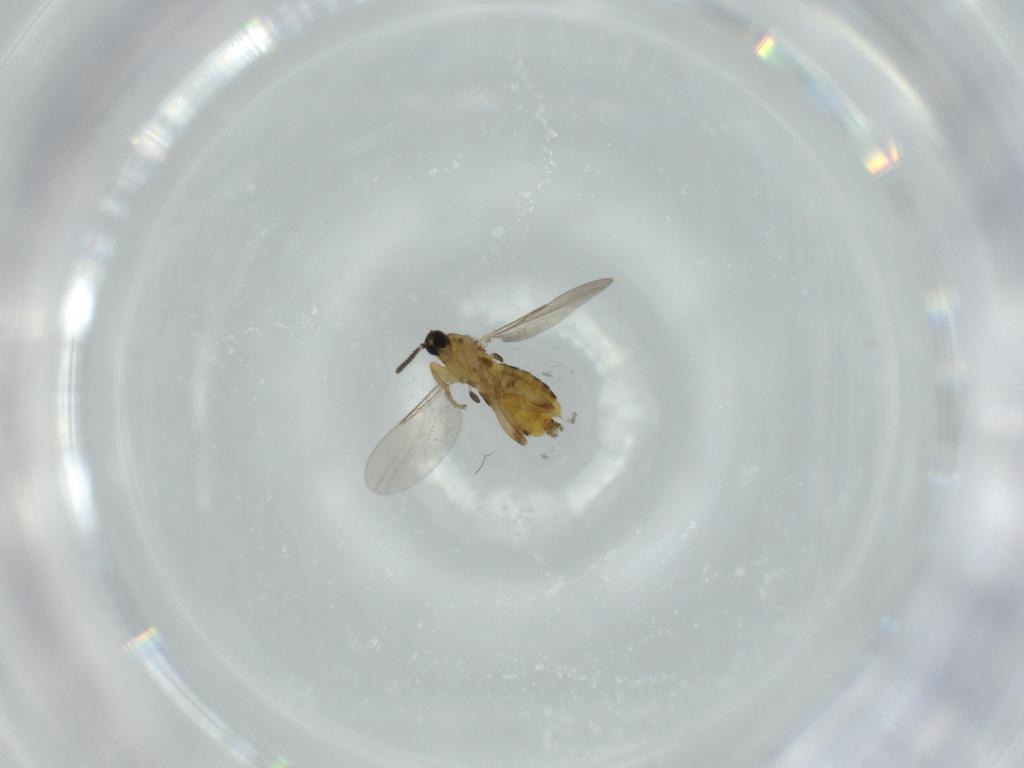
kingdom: Animalia
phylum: Arthropoda
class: Insecta
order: Diptera
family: Scatopsidae
